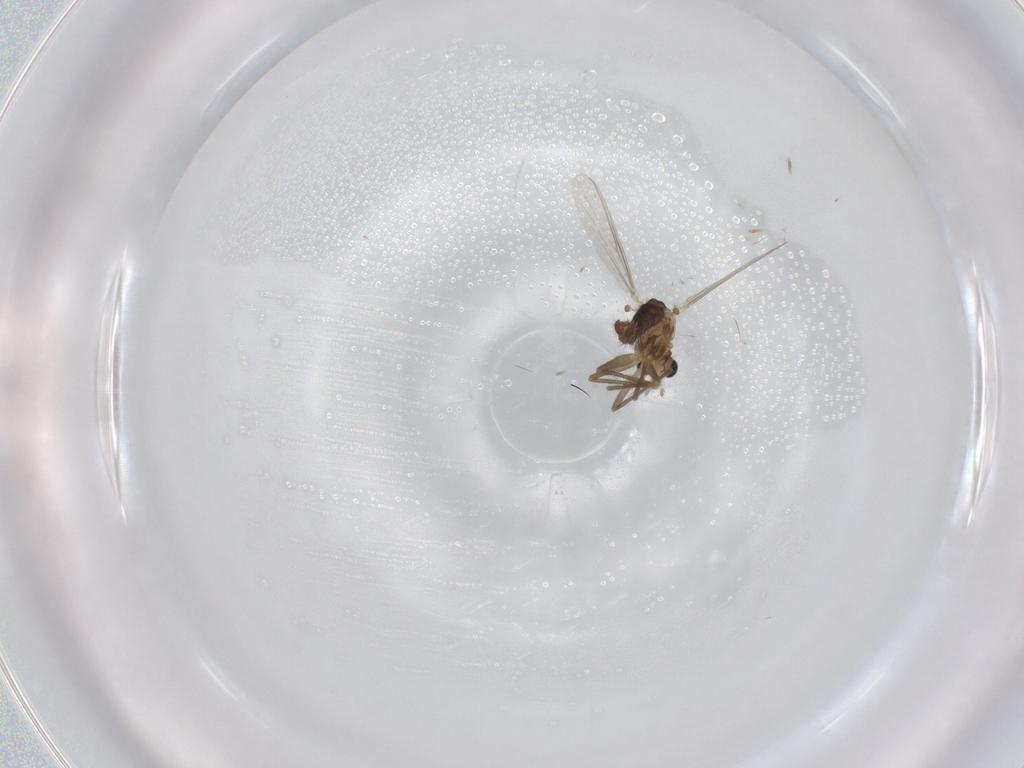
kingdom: Animalia
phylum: Arthropoda
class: Insecta
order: Diptera
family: Chironomidae
